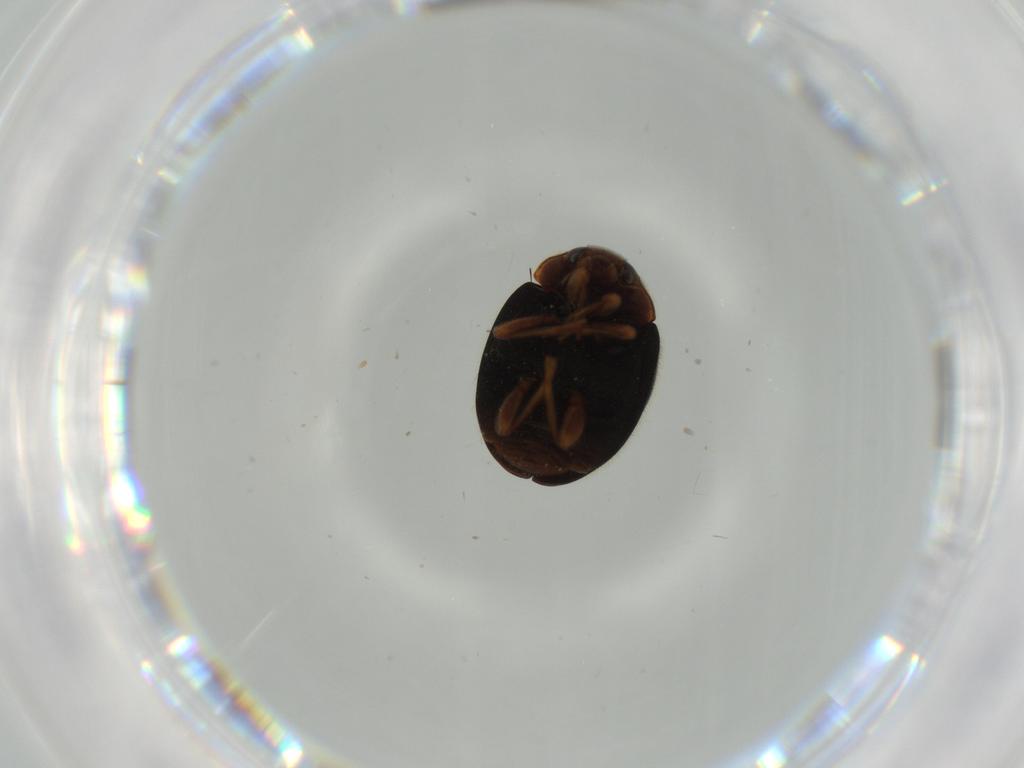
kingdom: Animalia
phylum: Arthropoda
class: Insecta
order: Coleoptera
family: Coccinellidae
